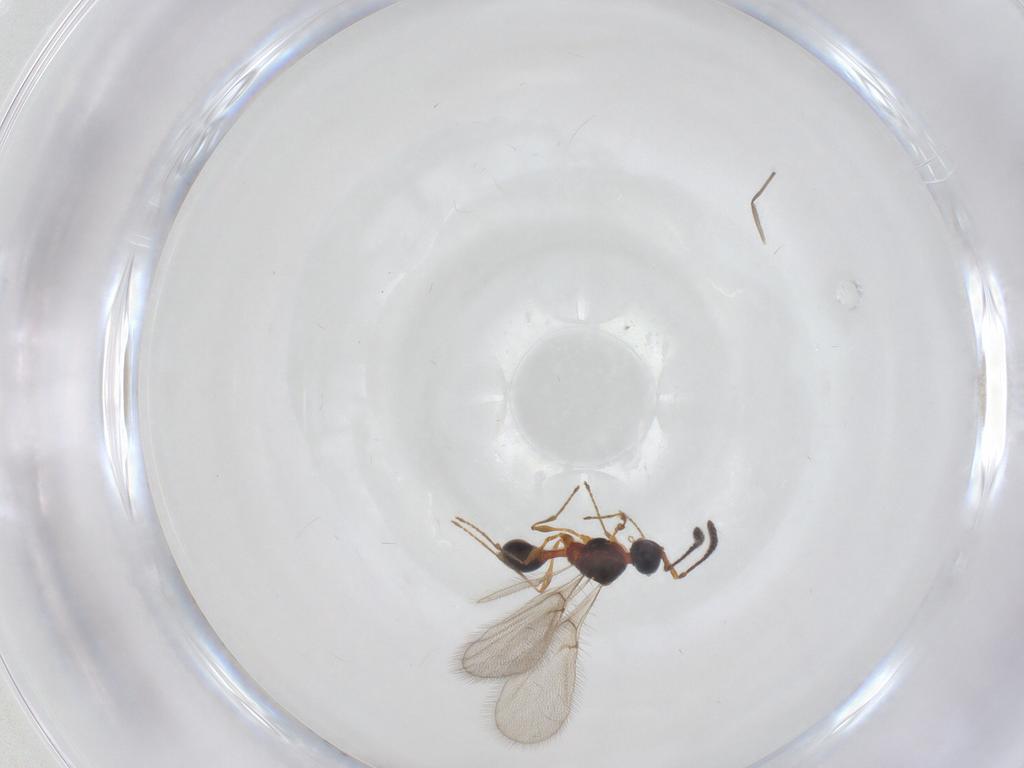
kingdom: Animalia
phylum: Arthropoda
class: Insecta
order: Hymenoptera
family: Diapriidae
